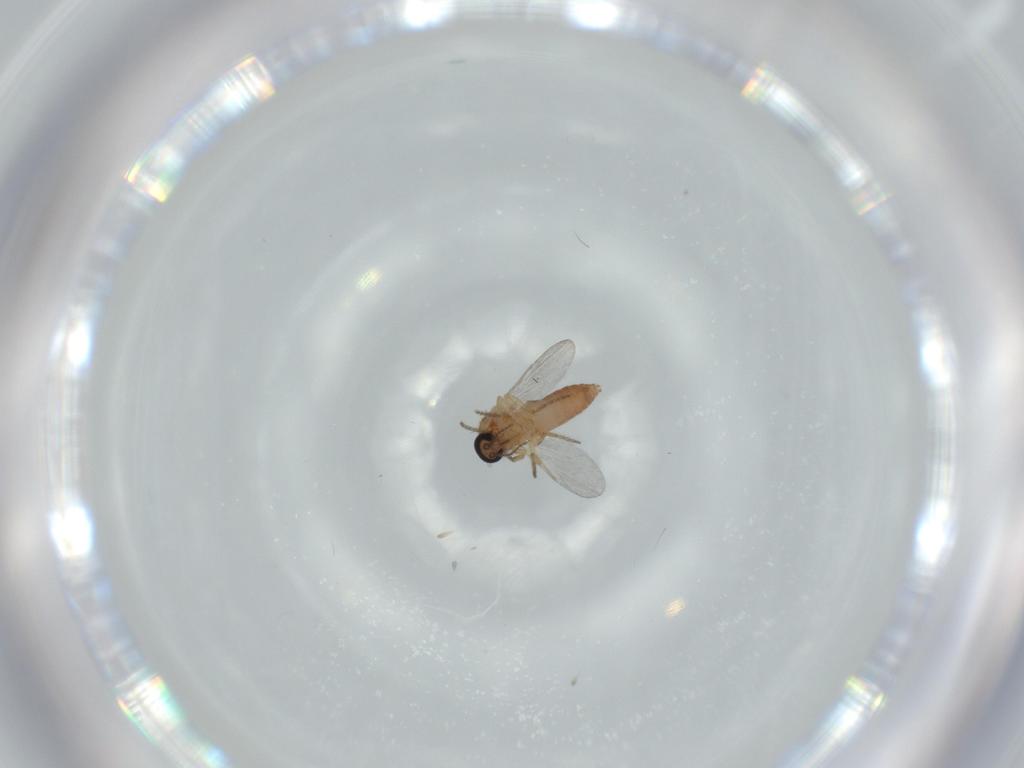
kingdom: Animalia
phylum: Arthropoda
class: Insecta
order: Diptera
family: Ceratopogonidae
